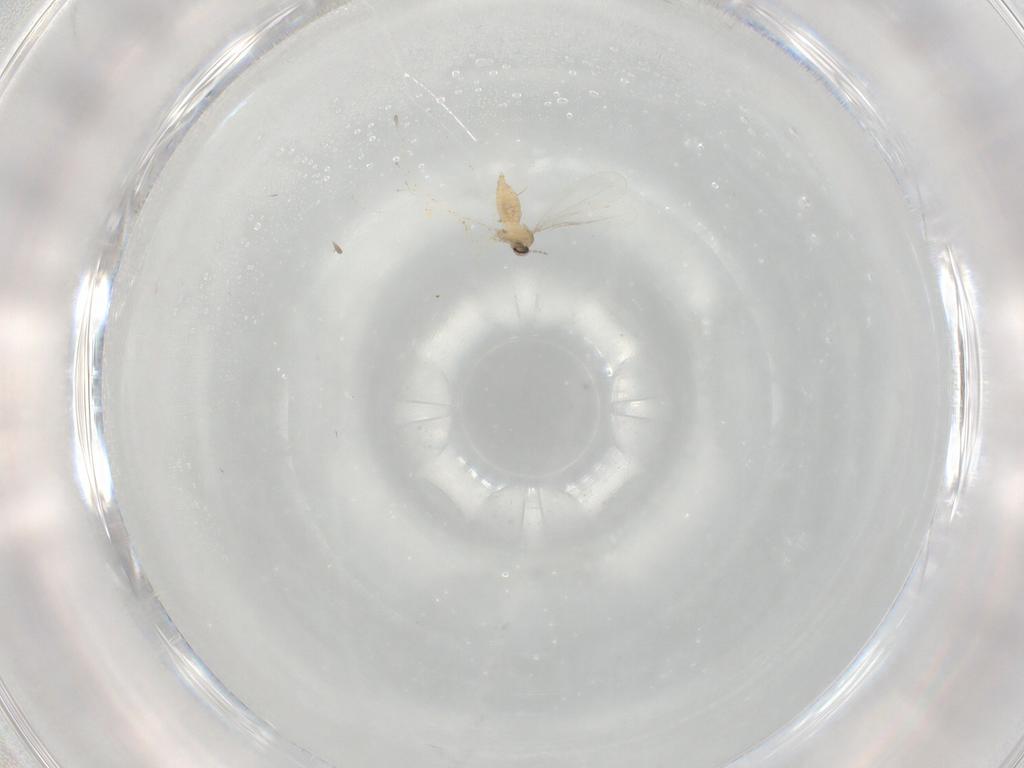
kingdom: Animalia
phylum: Arthropoda
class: Insecta
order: Diptera
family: Cecidomyiidae
